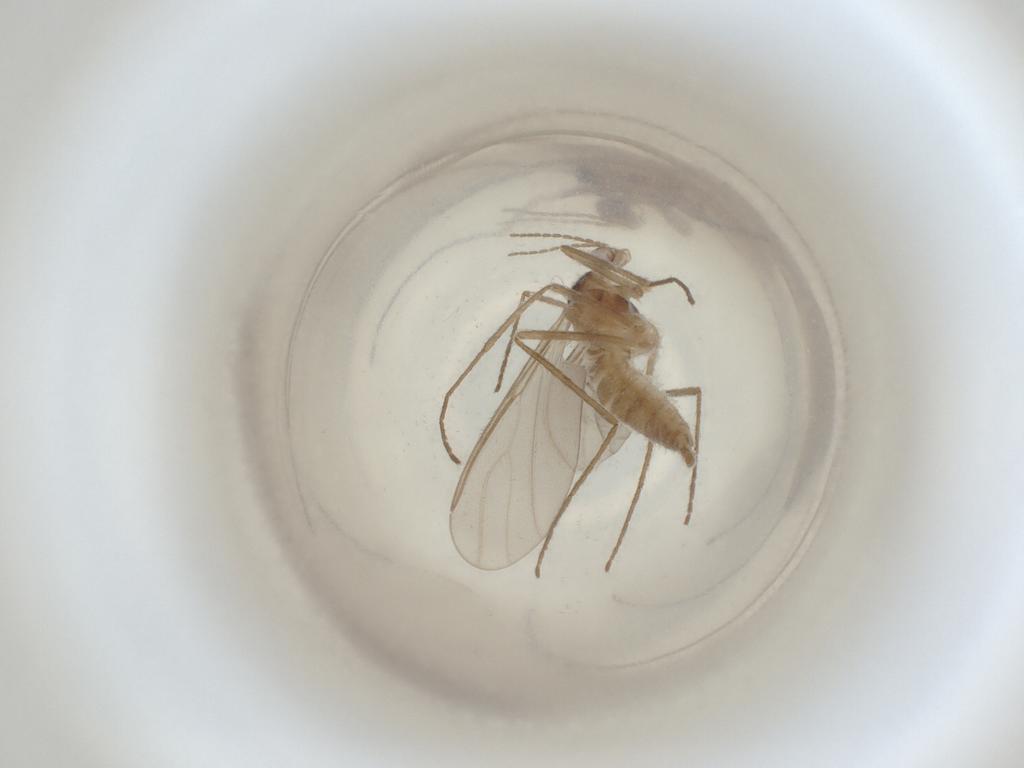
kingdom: Animalia
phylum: Arthropoda
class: Insecta
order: Diptera
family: Cecidomyiidae
